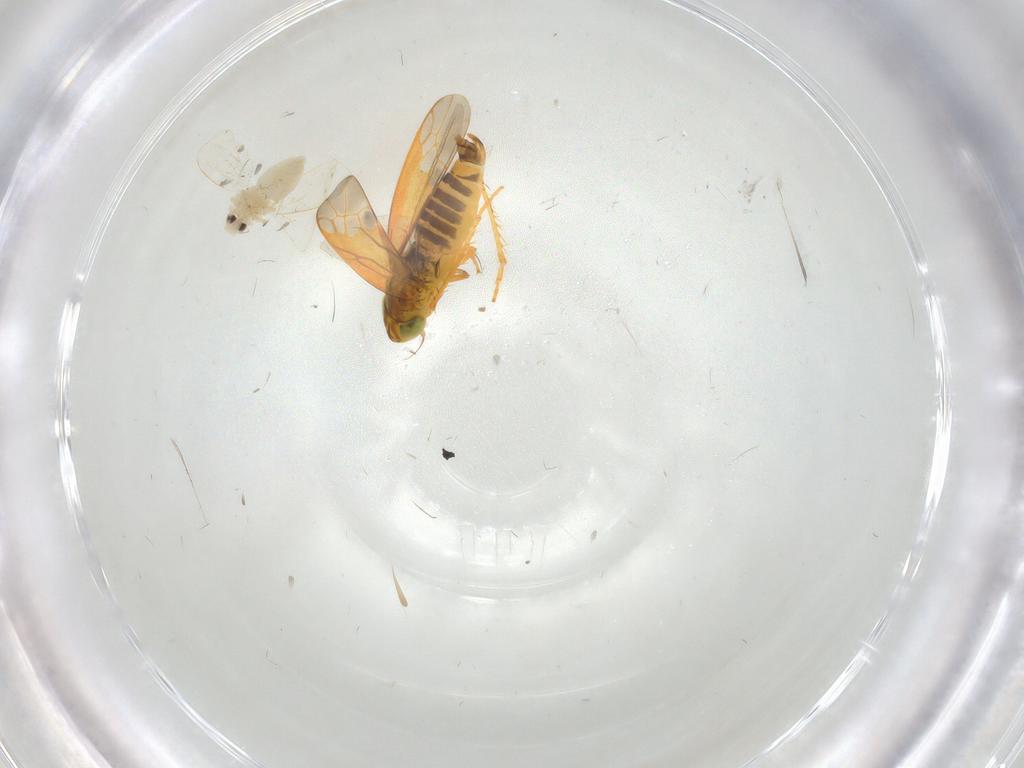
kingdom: Animalia
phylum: Arthropoda
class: Insecta
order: Hemiptera
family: Cicadellidae
